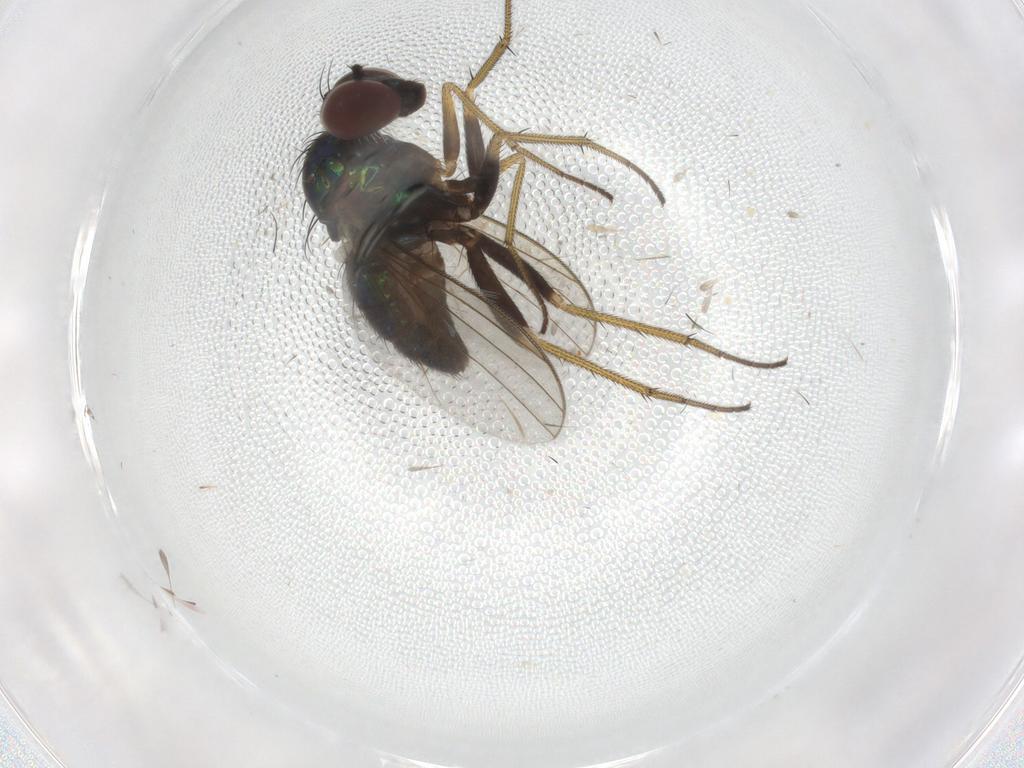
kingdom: Animalia
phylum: Arthropoda
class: Insecta
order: Diptera
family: Dolichopodidae
